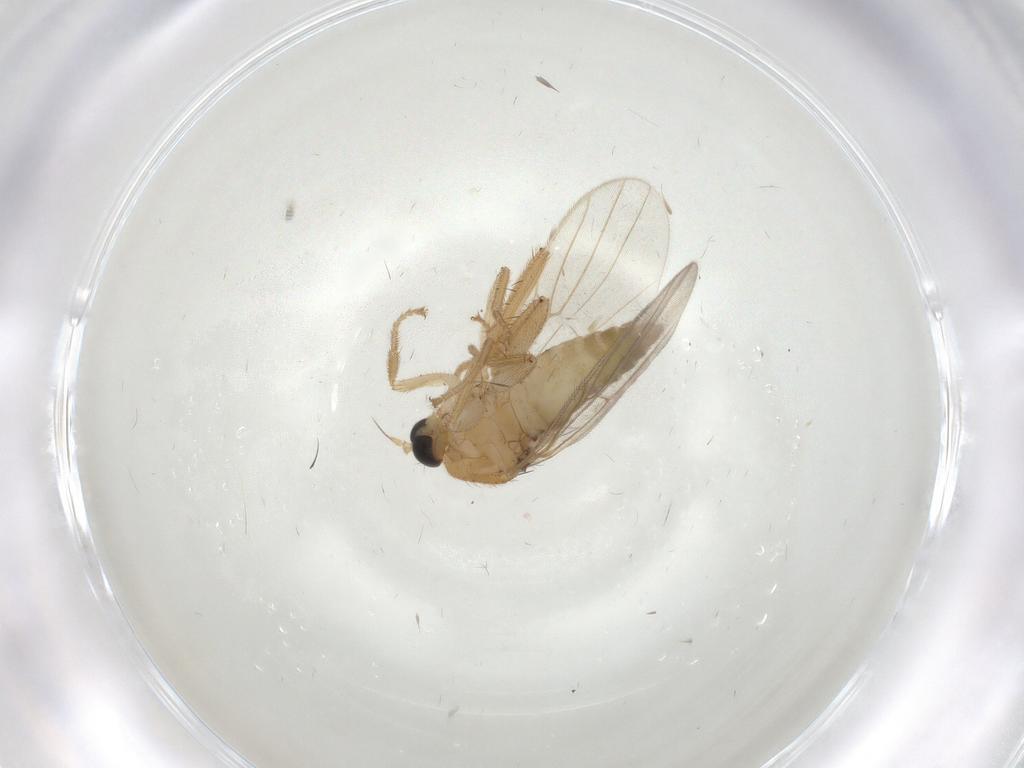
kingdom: Animalia
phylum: Arthropoda
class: Insecta
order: Diptera
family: Hybotidae
